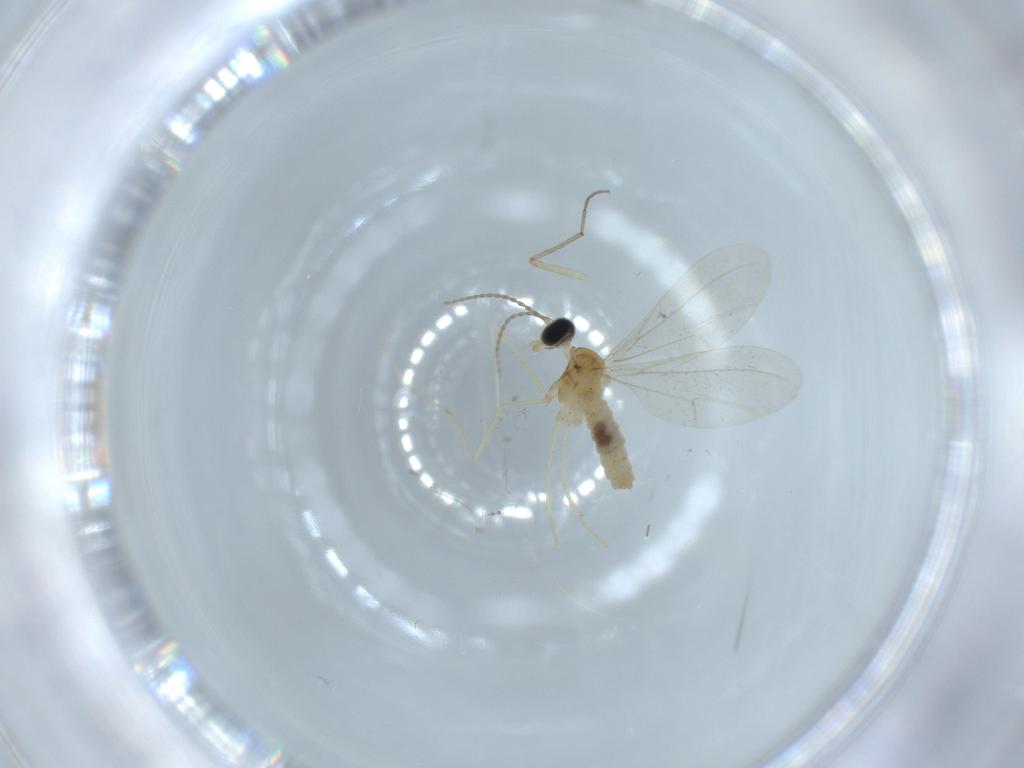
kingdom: Animalia
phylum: Arthropoda
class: Insecta
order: Diptera
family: Cecidomyiidae
